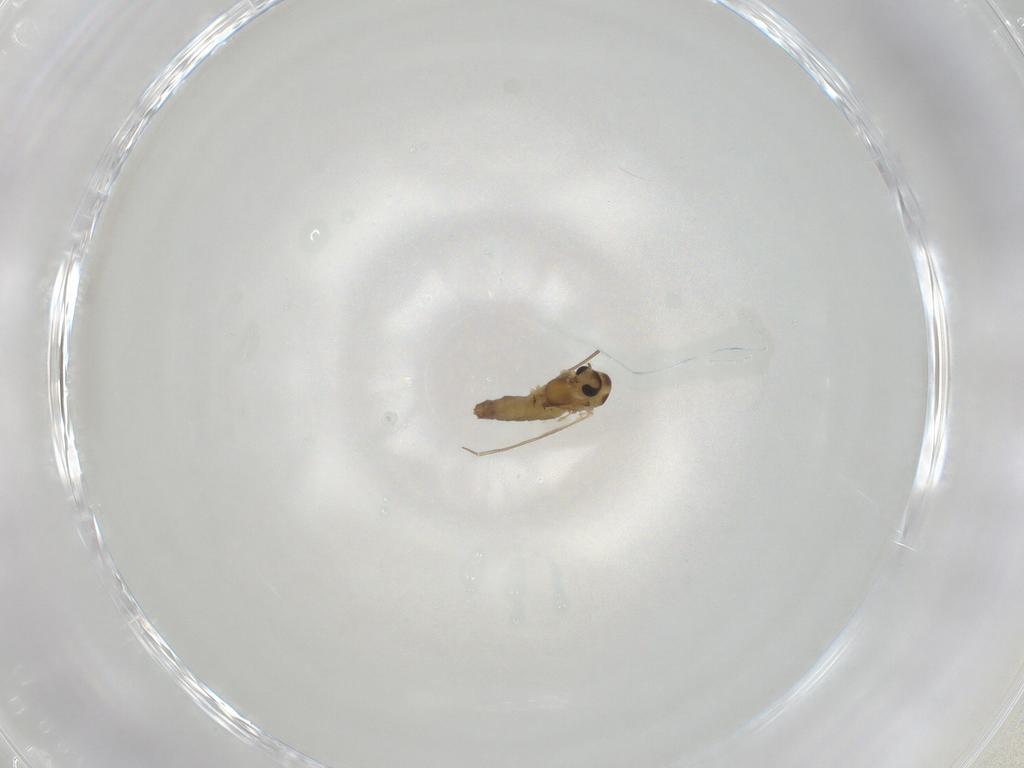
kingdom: Animalia
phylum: Arthropoda
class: Insecta
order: Diptera
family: Chironomidae
